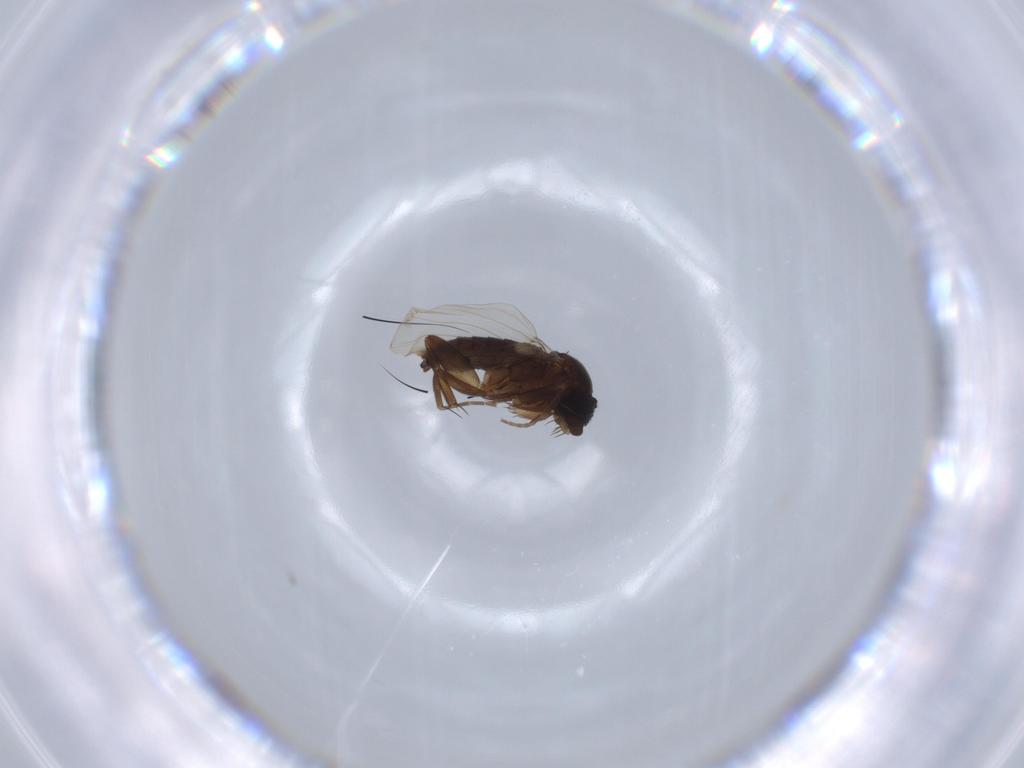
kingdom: Animalia
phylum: Arthropoda
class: Insecta
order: Diptera
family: Phoridae
